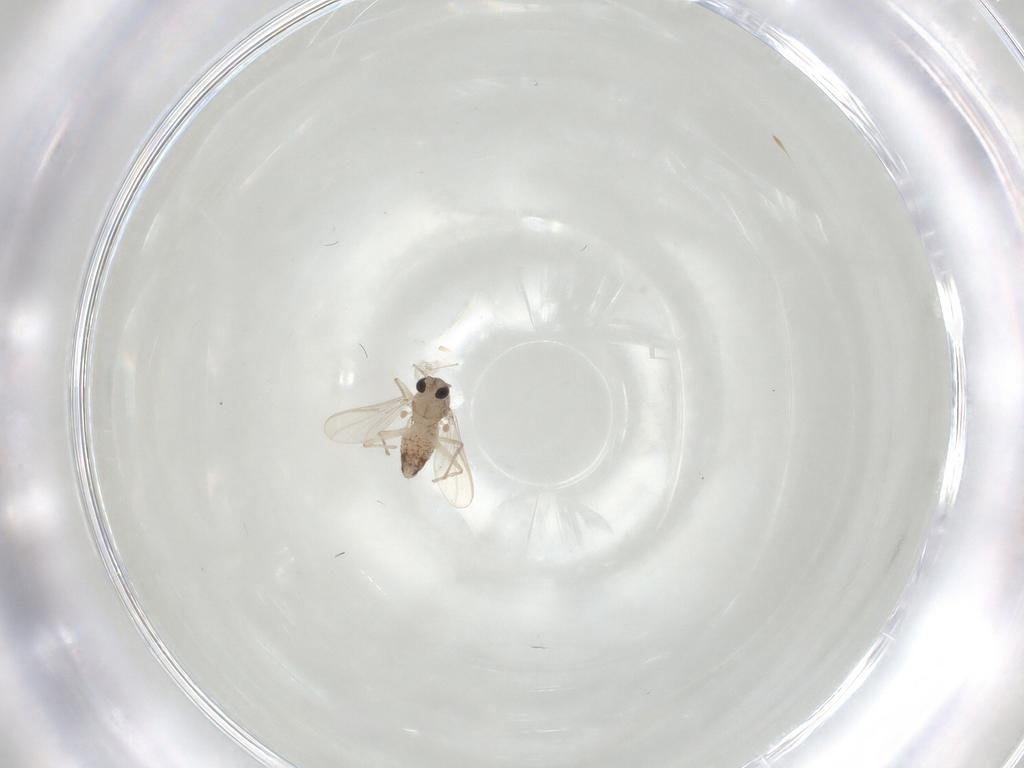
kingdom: Animalia
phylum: Arthropoda
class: Insecta
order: Diptera
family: Chironomidae
